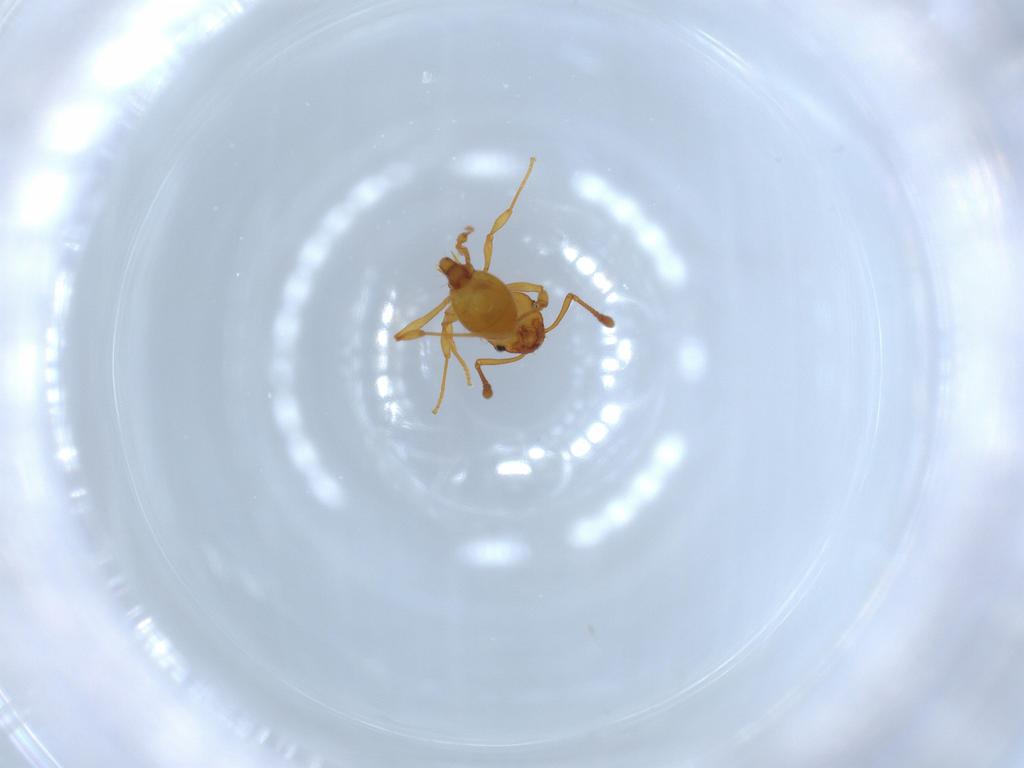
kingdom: Animalia
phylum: Arthropoda
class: Insecta
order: Hymenoptera
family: Formicidae
